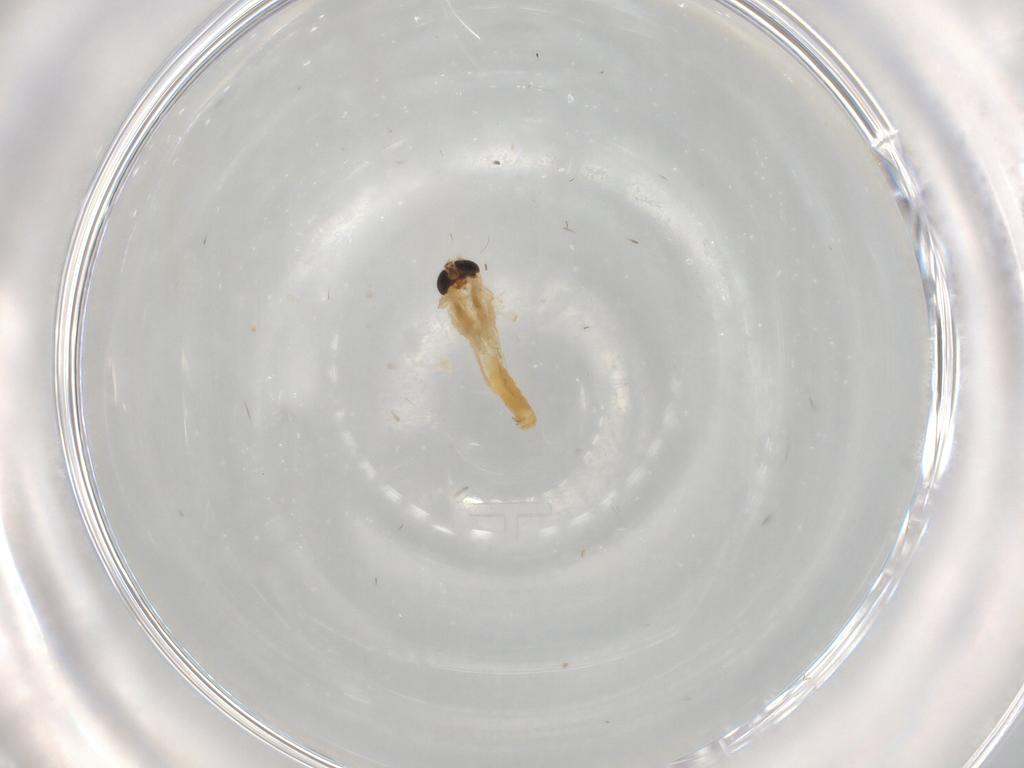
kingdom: Animalia
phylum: Arthropoda
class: Insecta
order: Diptera
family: Chironomidae
